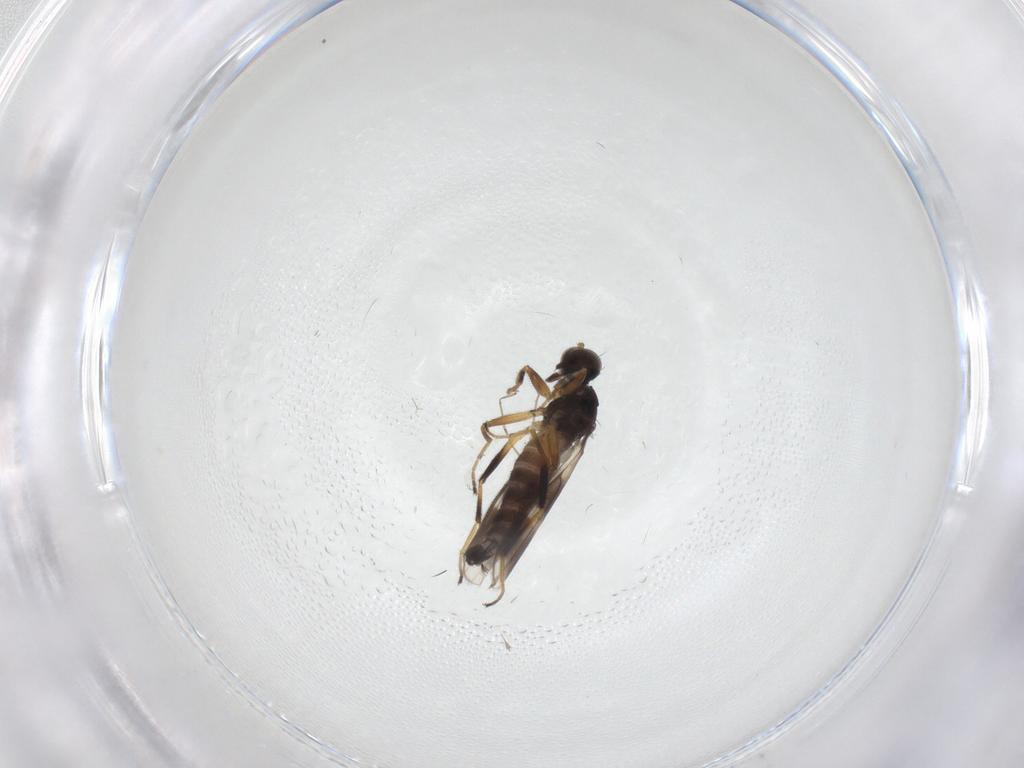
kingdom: Animalia
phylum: Arthropoda
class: Insecta
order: Diptera
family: Hybotidae
